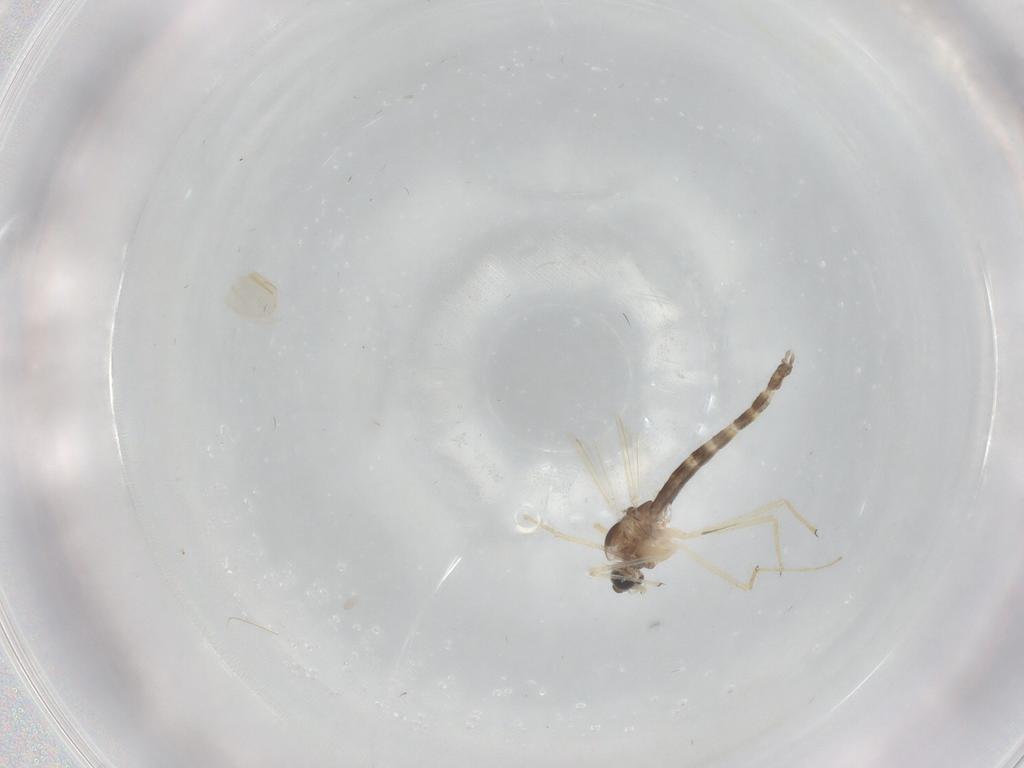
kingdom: Animalia
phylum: Arthropoda
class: Insecta
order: Diptera
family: Chironomidae
